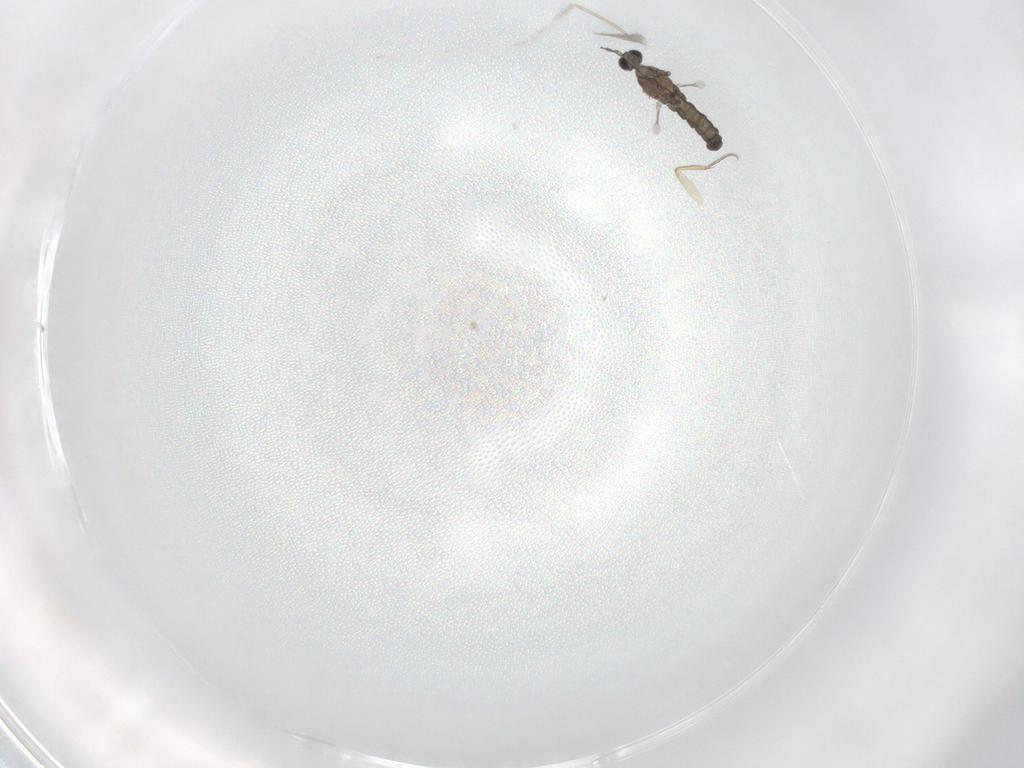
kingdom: Animalia
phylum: Arthropoda
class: Insecta
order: Diptera
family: Cecidomyiidae
